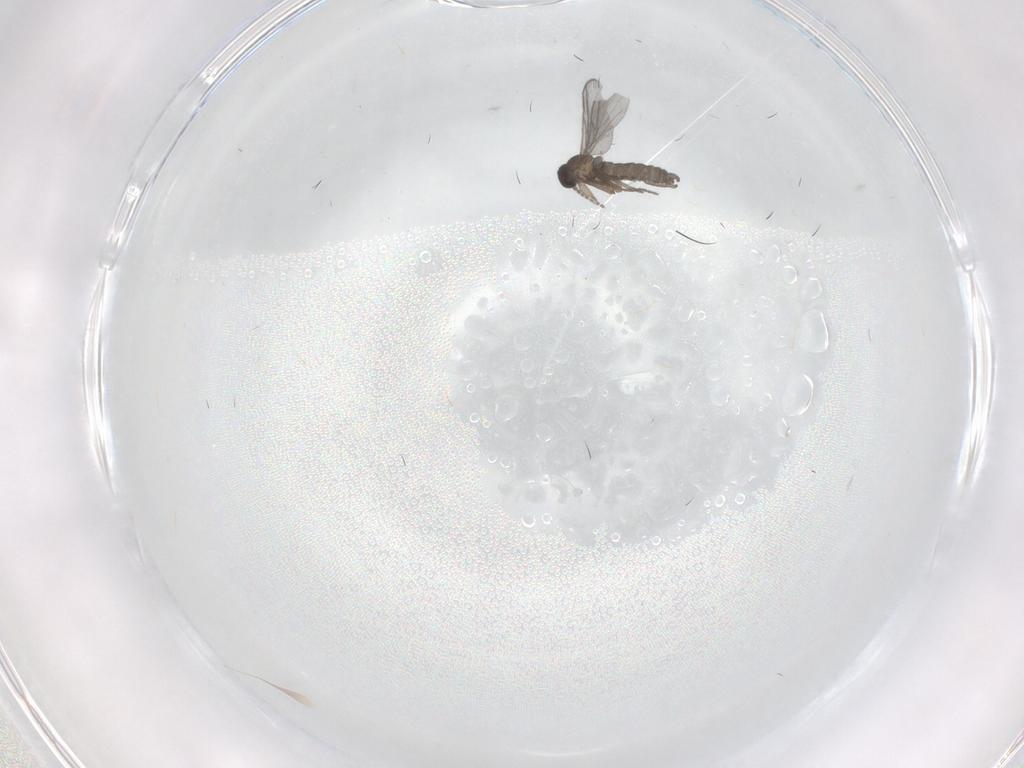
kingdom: Animalia
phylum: Arthropoda
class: Insecta
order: Diptera
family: Sciaridae
